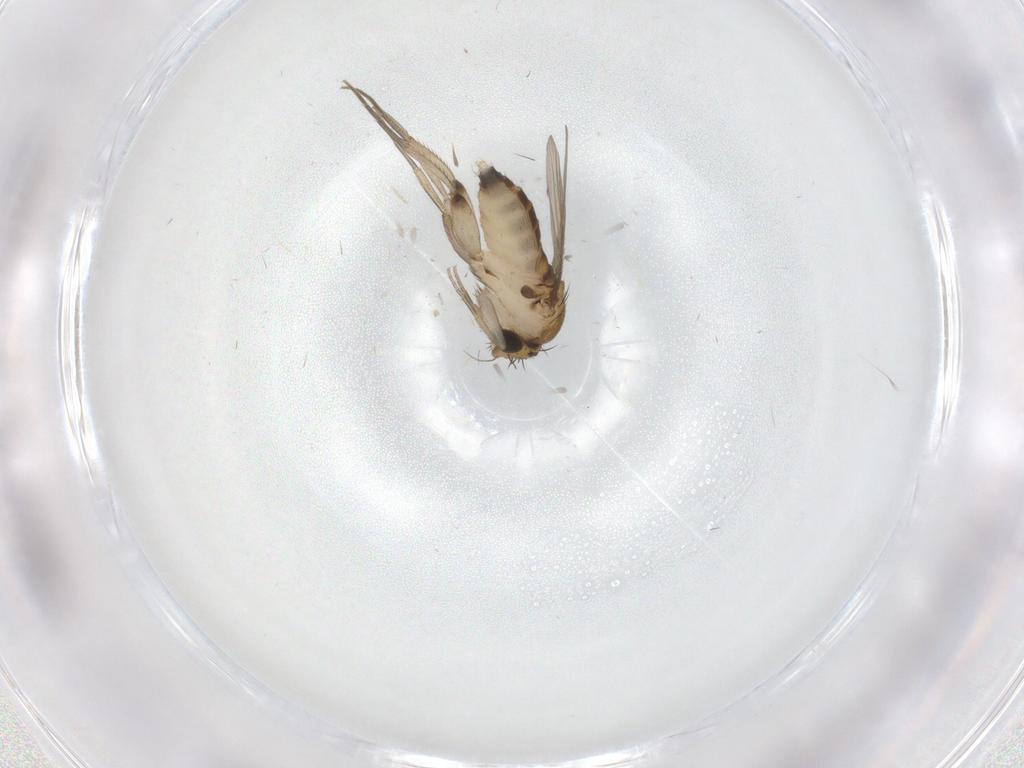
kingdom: Animalia
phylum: Arthropoda
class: Insecta
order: Diptera
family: Phoridae
